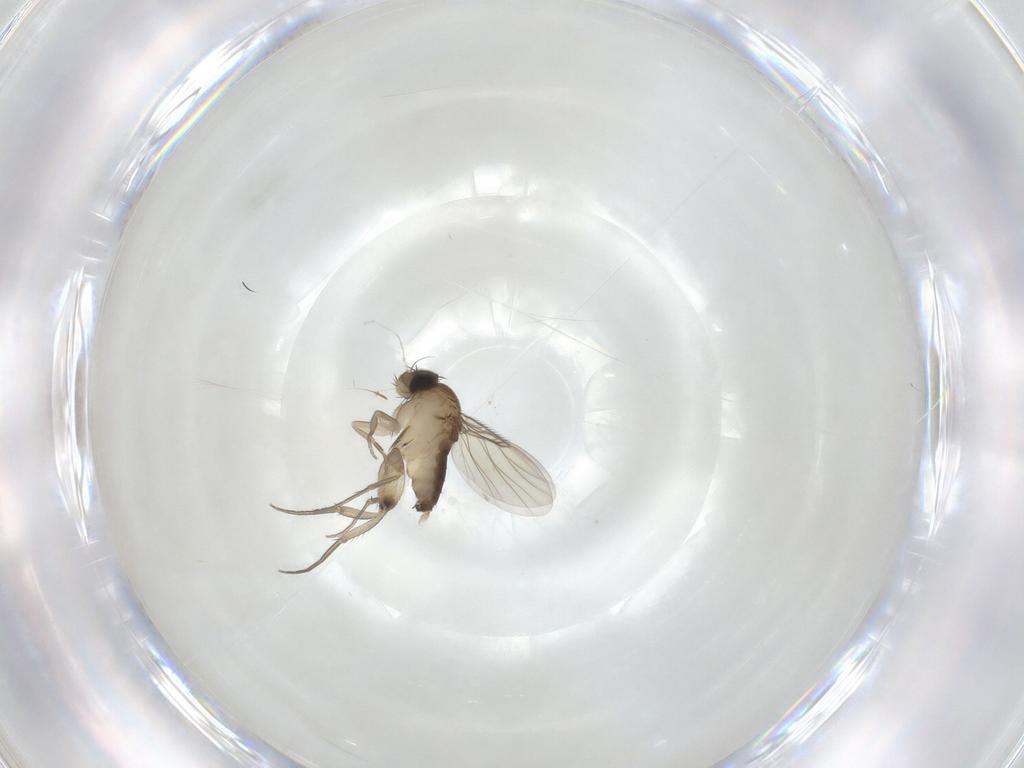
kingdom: Animalia
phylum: Arthropoda
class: Insecta
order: Diptera
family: Phoridae
